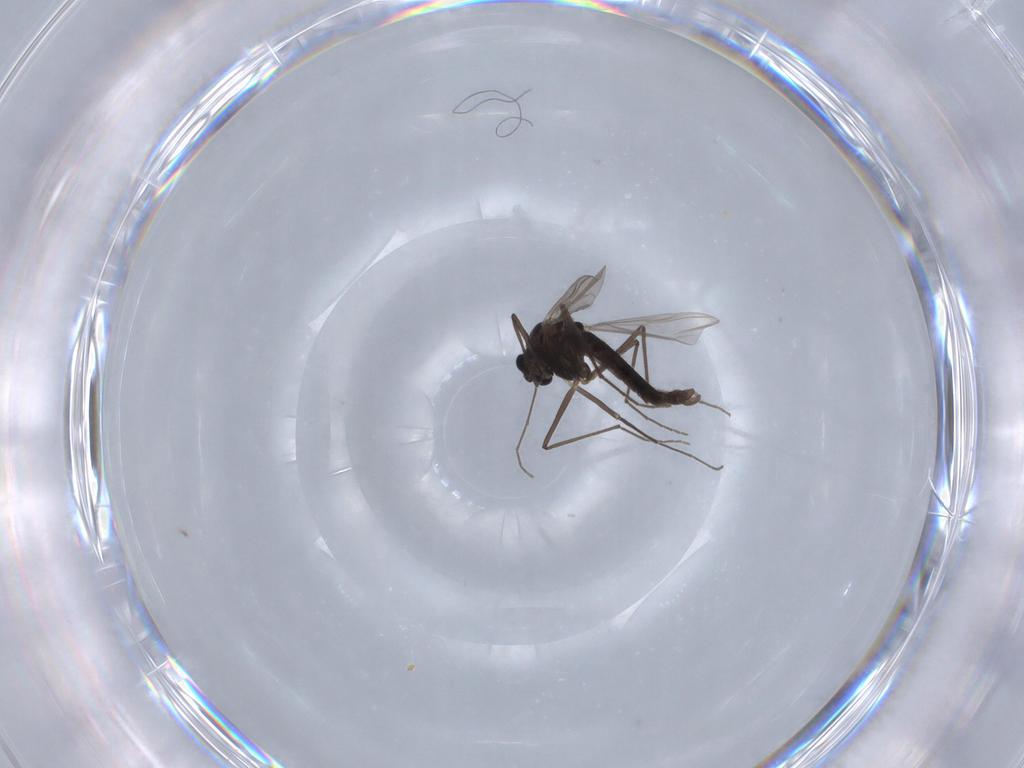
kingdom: Animalia
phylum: Arthropoda
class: Insecta
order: Diptera
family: Chironomidae
